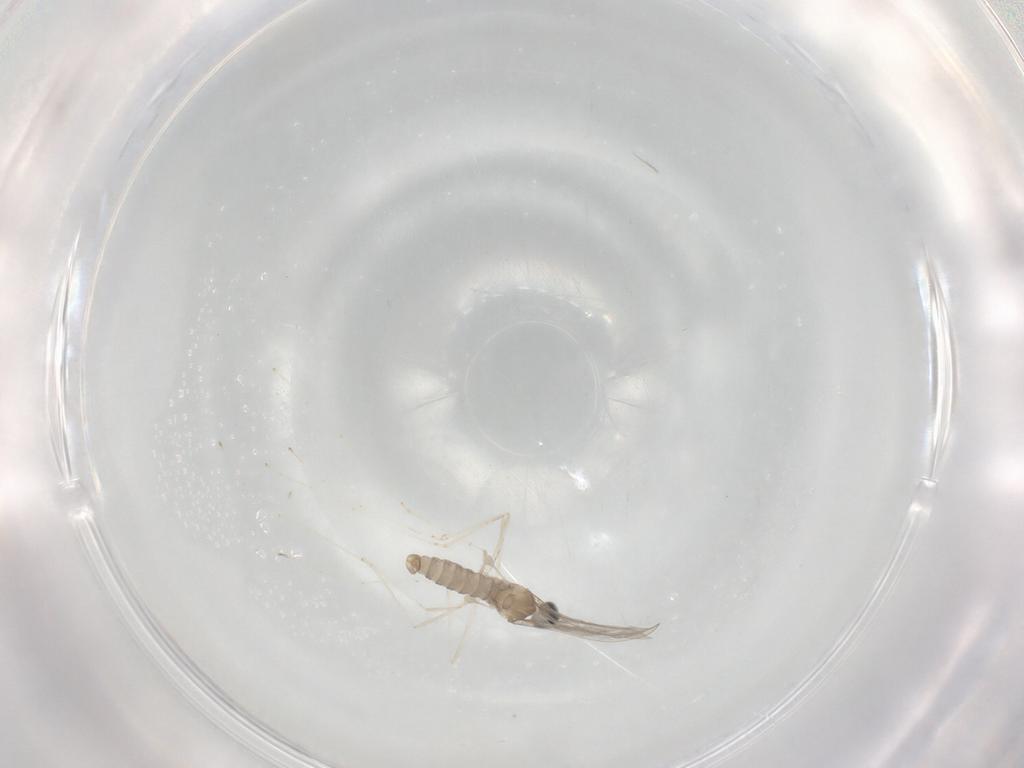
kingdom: Animalia
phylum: Arthropoda
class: Insecta
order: Diptera
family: Cecidomyiidae
